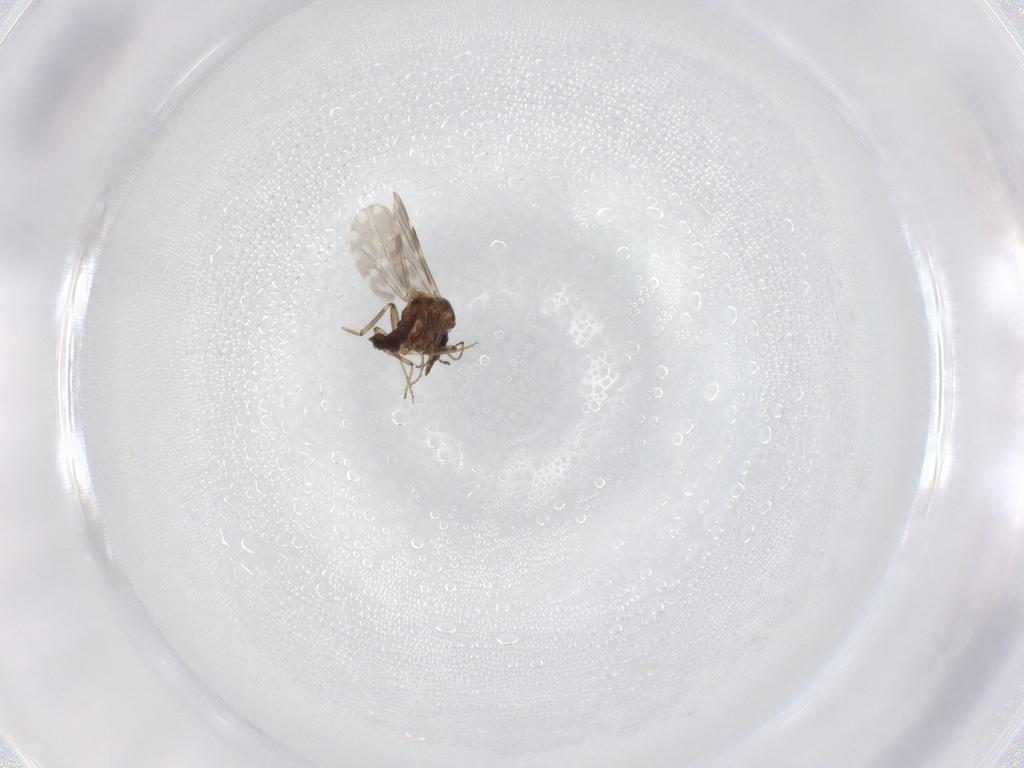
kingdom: Animalia
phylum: Arthropoda
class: Insecta
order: Diptera
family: Ceratopogonidae
